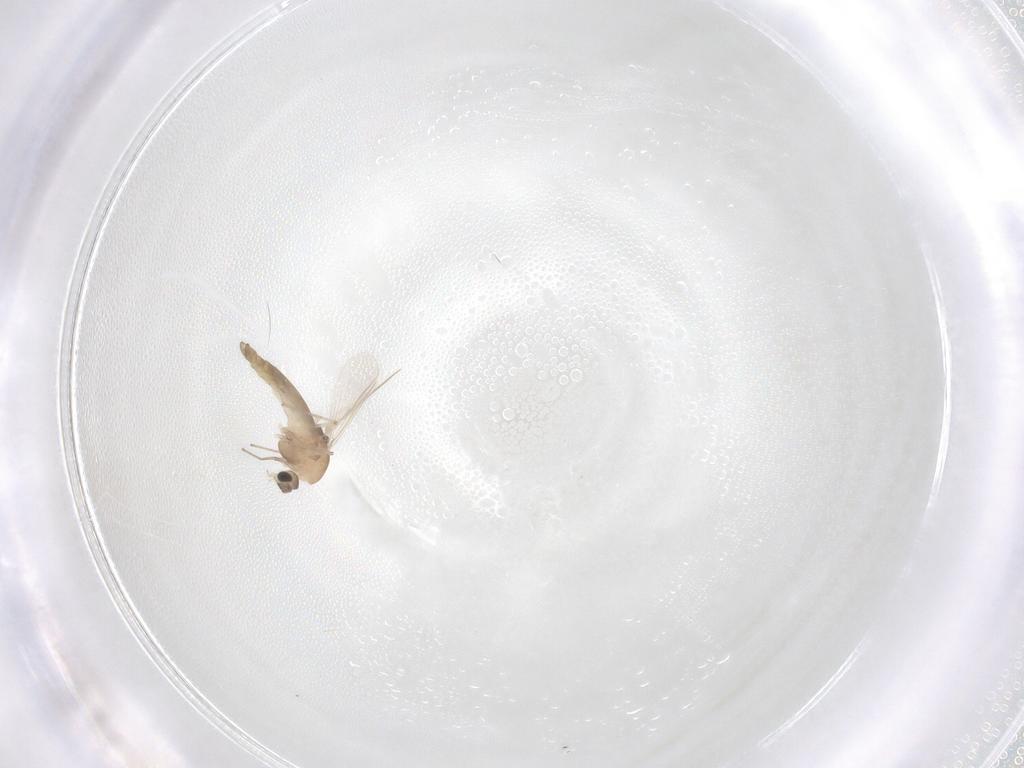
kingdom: Animalia
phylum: Arthropoda
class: Insecta
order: Diptera
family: Chironomidae
